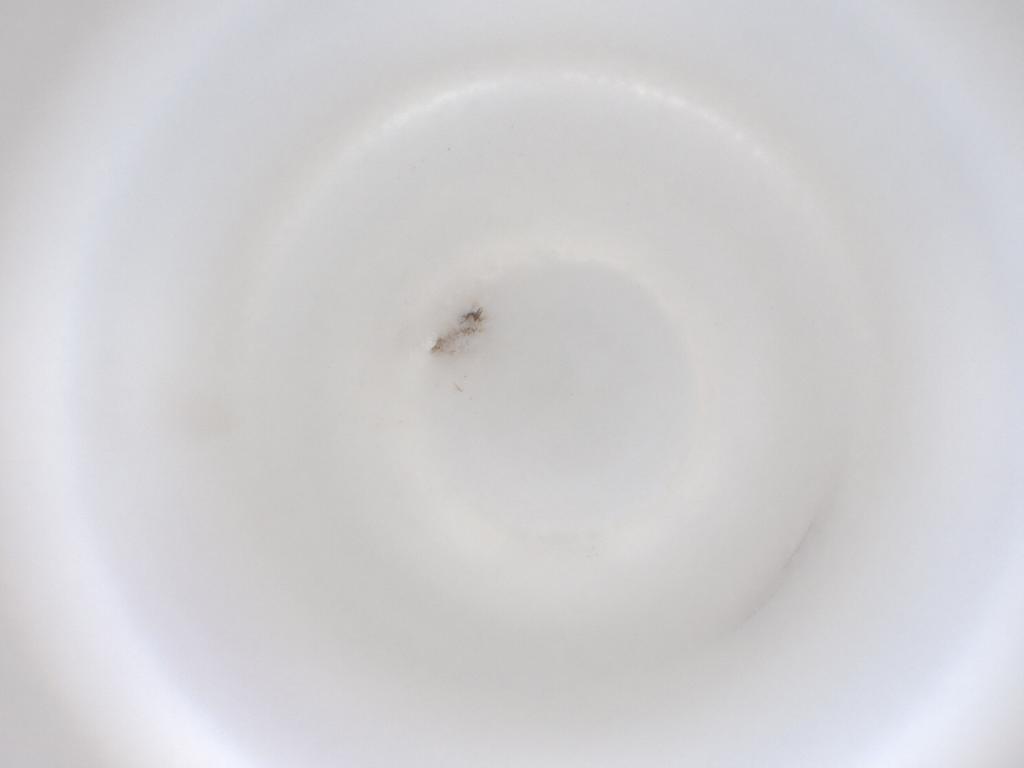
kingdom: Animalia
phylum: Arthropoda
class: Insecta
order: Diptera
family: Cecidomyiidae
